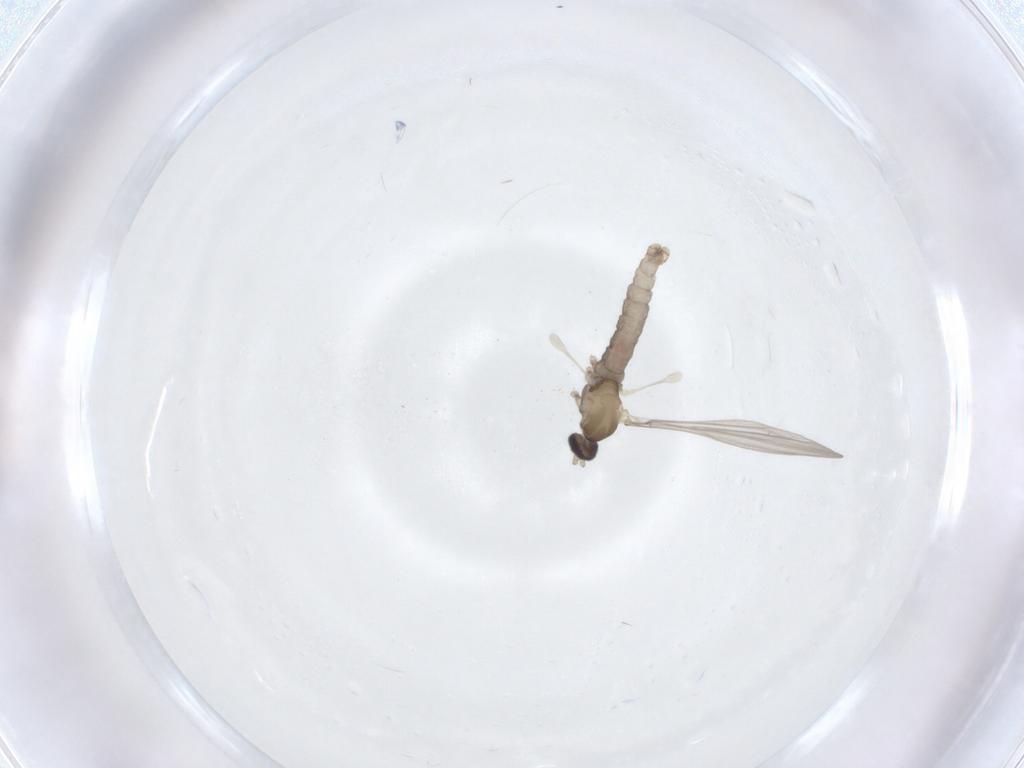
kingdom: Animalia
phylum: Arthropoda
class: Insecta
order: Diptera
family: Cecidomyiidae
